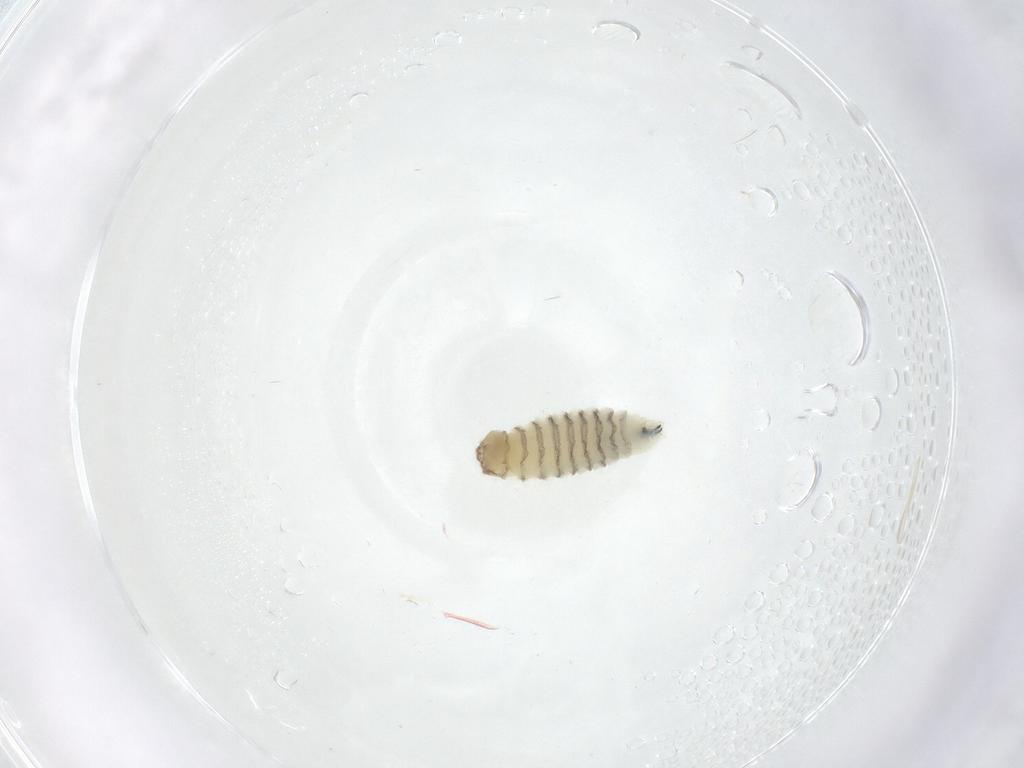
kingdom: Animalia
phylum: Arthropoda
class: Insecta
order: Diptera
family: Sarcophagidae
